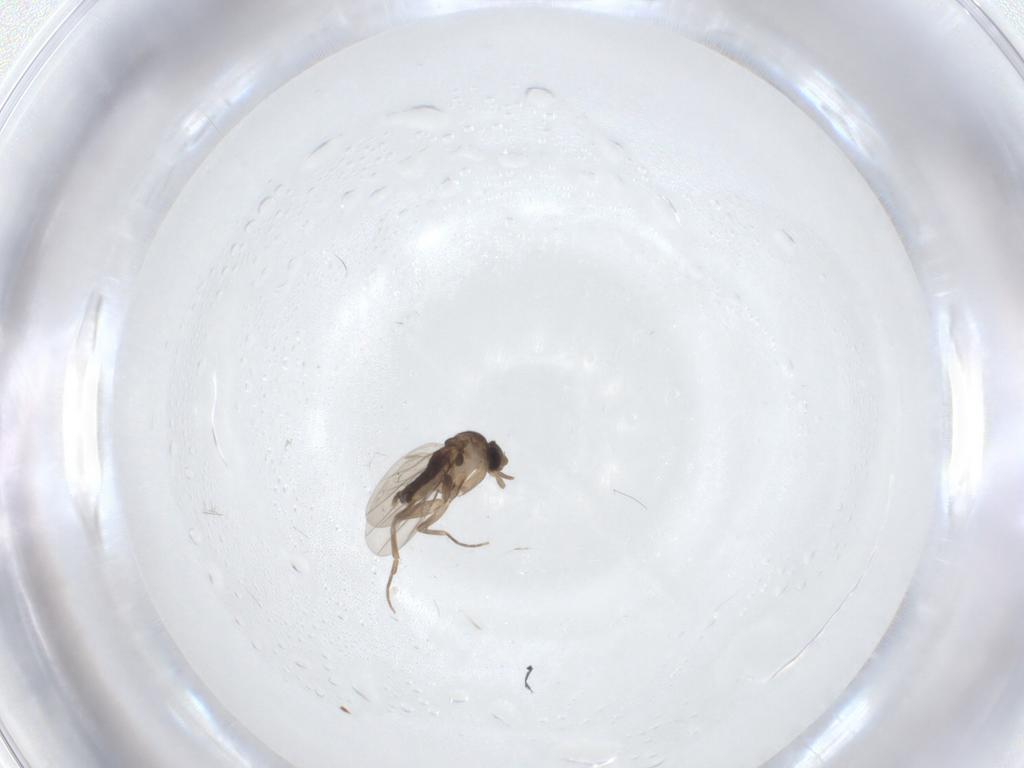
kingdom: Animalia
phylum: Arthropoda
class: Insecta
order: Diptera
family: Phoridae
